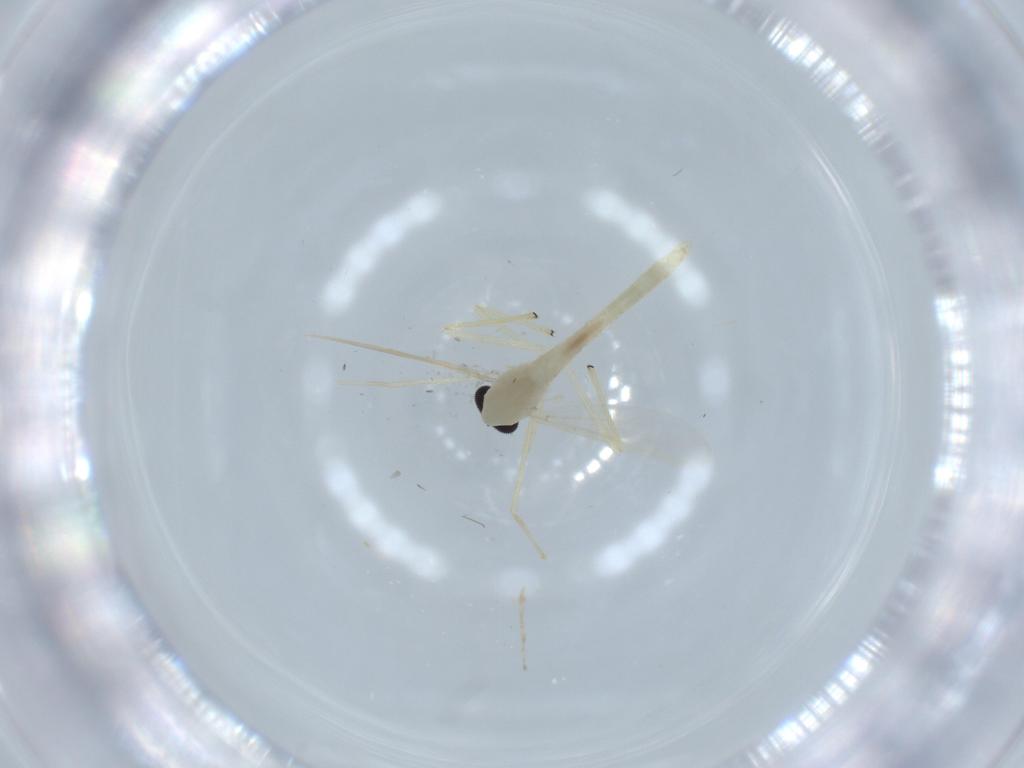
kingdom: Animalia
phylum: Arthropoda
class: Insecta
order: Diptera
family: Chironomidae
